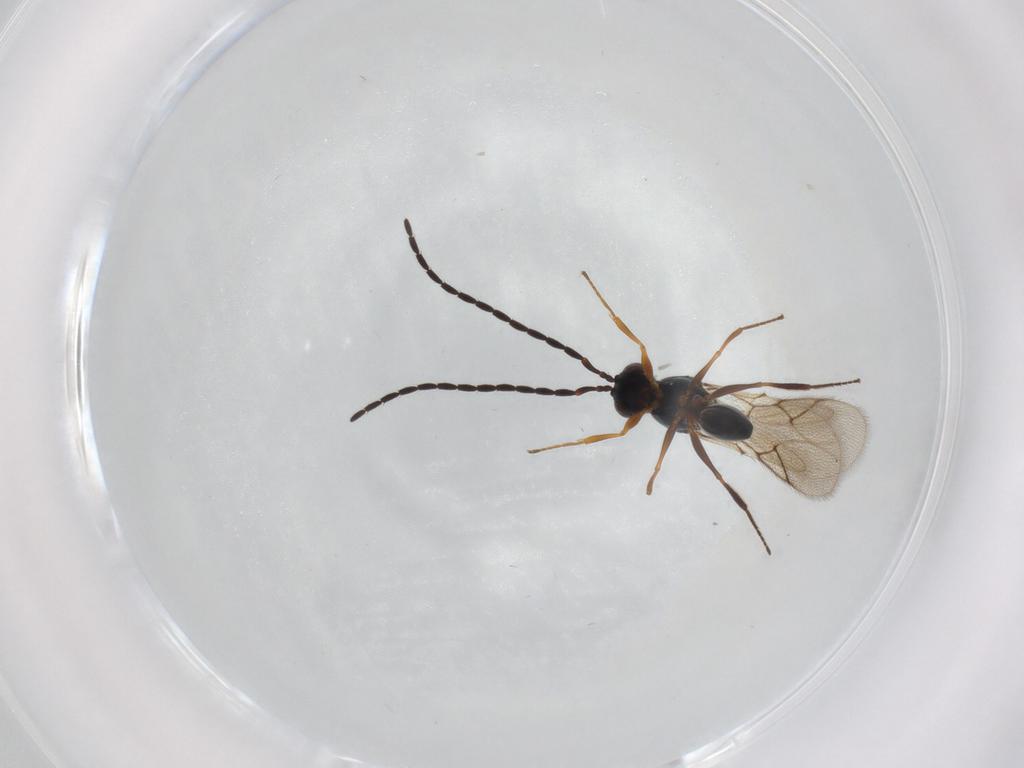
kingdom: Animalia
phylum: Arthropoda
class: Insecta
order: Hymenoptera
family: Figitidae
